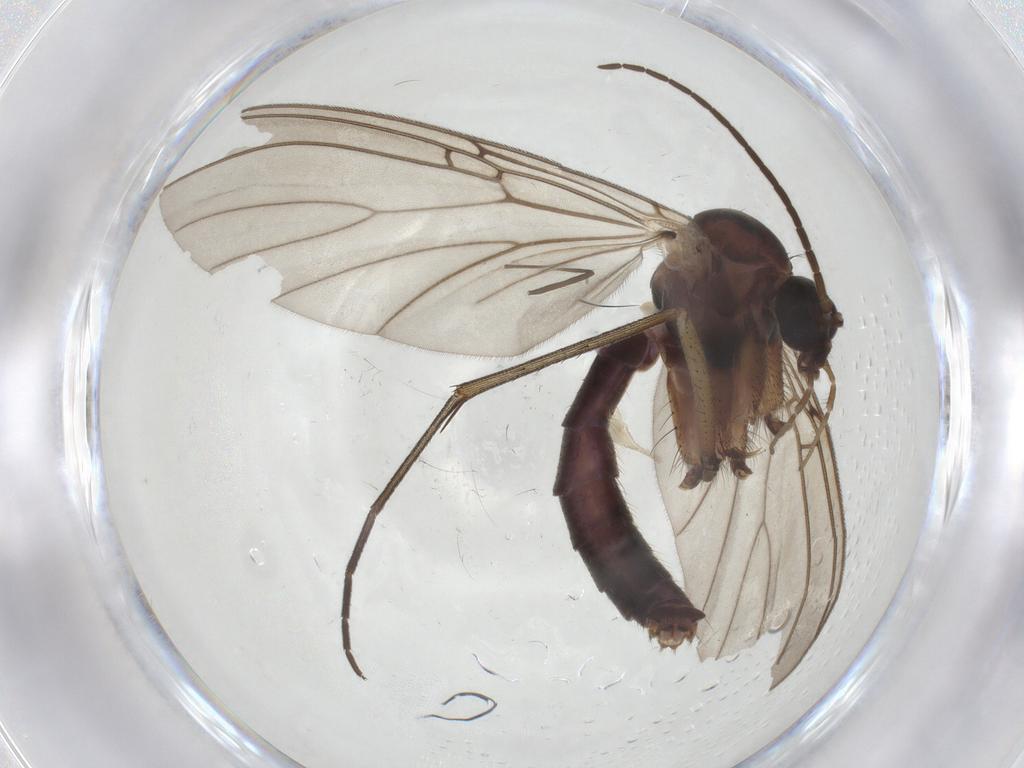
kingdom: Animalia
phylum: Arthropoda
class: Insecta
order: Diptera
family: Mycetophilidae
